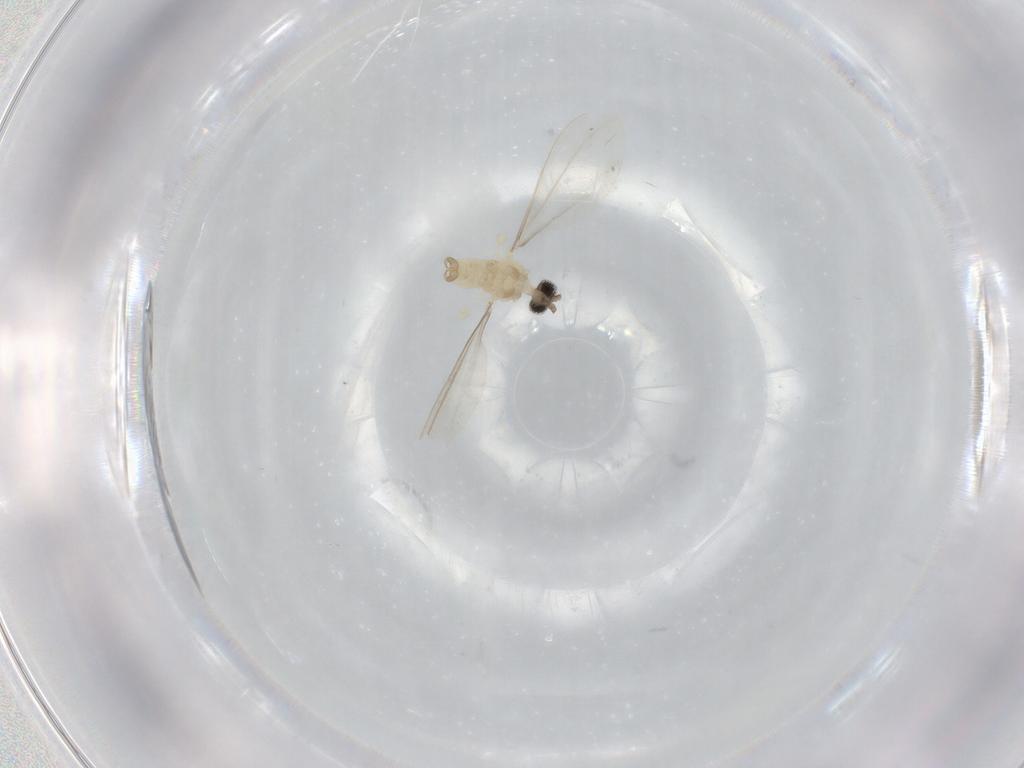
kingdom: Animalia
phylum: Arthropoda
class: Insecta
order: Diptera
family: Cecidomyiidae
